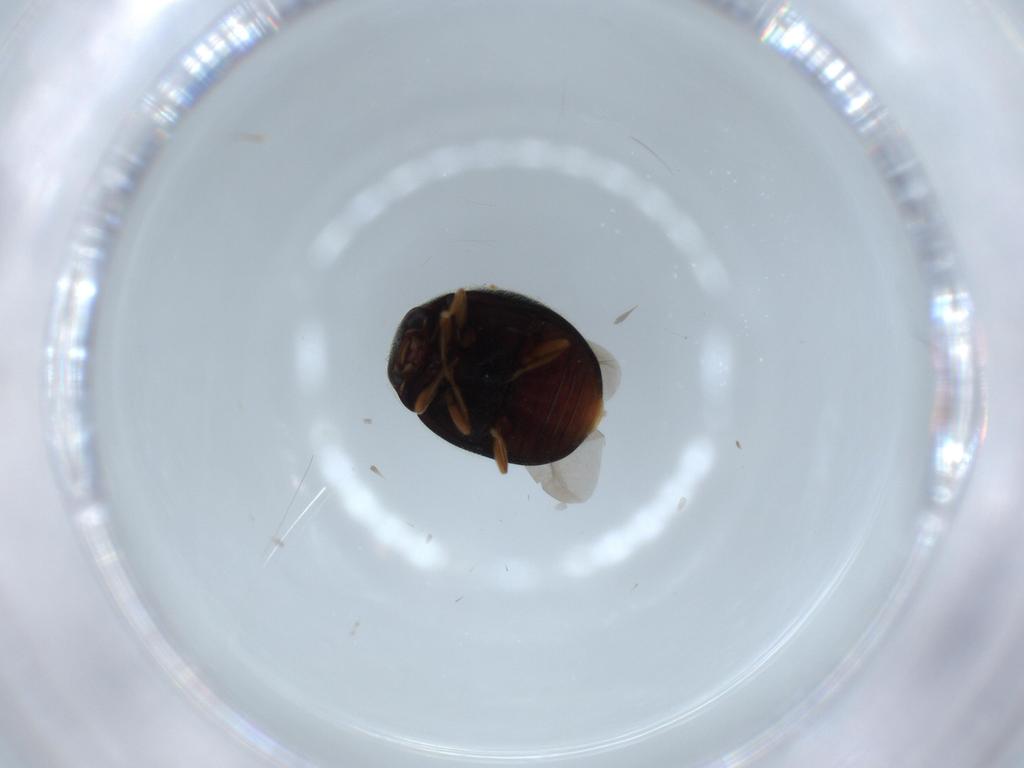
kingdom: Animalia
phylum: Arthropoda
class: Insecta
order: Coleoptera
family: Coccinellidae
